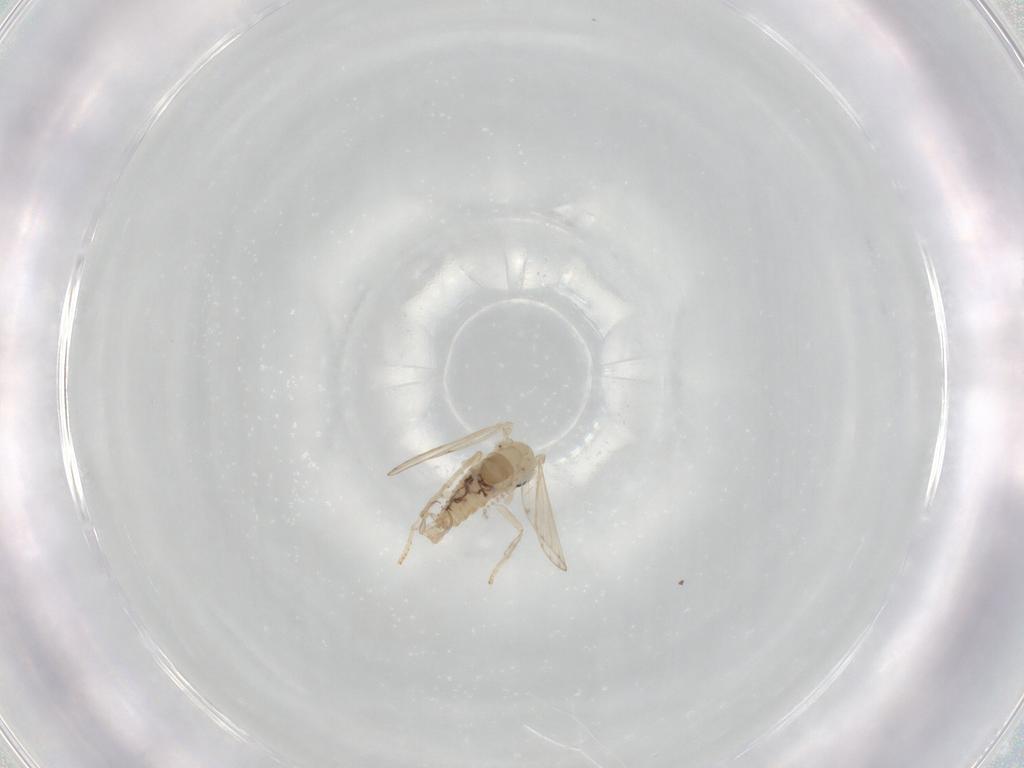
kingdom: Animalia
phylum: Arthropoda
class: Insecta
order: Diptera
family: Psychodidae
